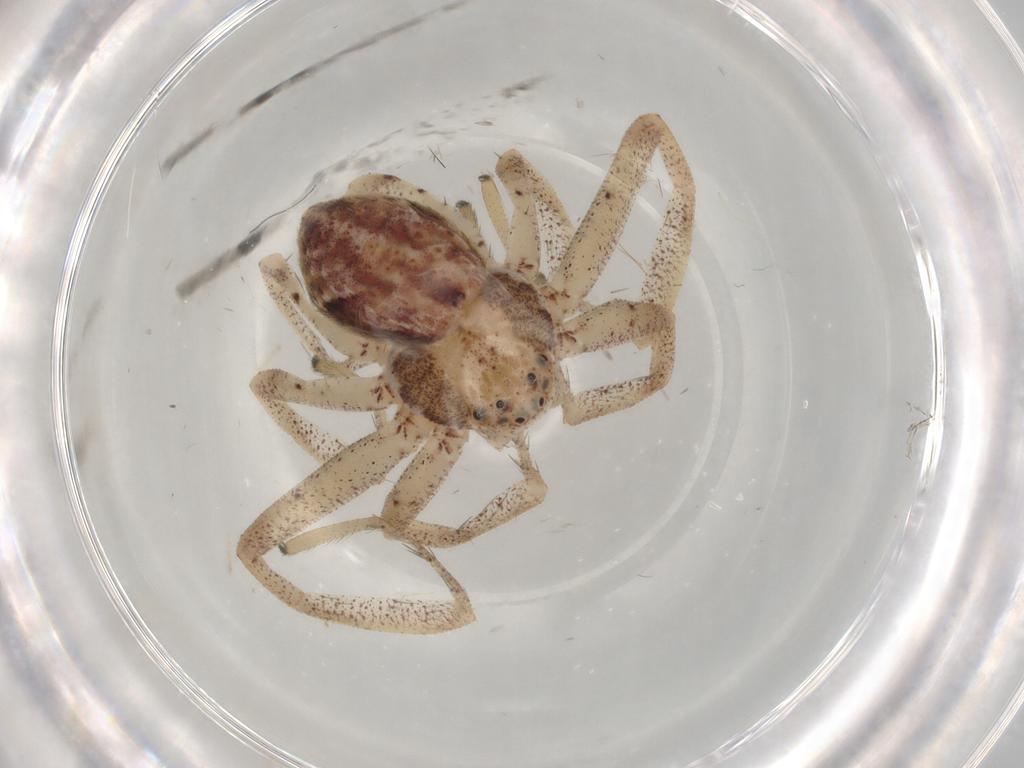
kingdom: Animalia
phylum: Arthropoda
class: Arachnida
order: Araneae
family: Philodromidae
